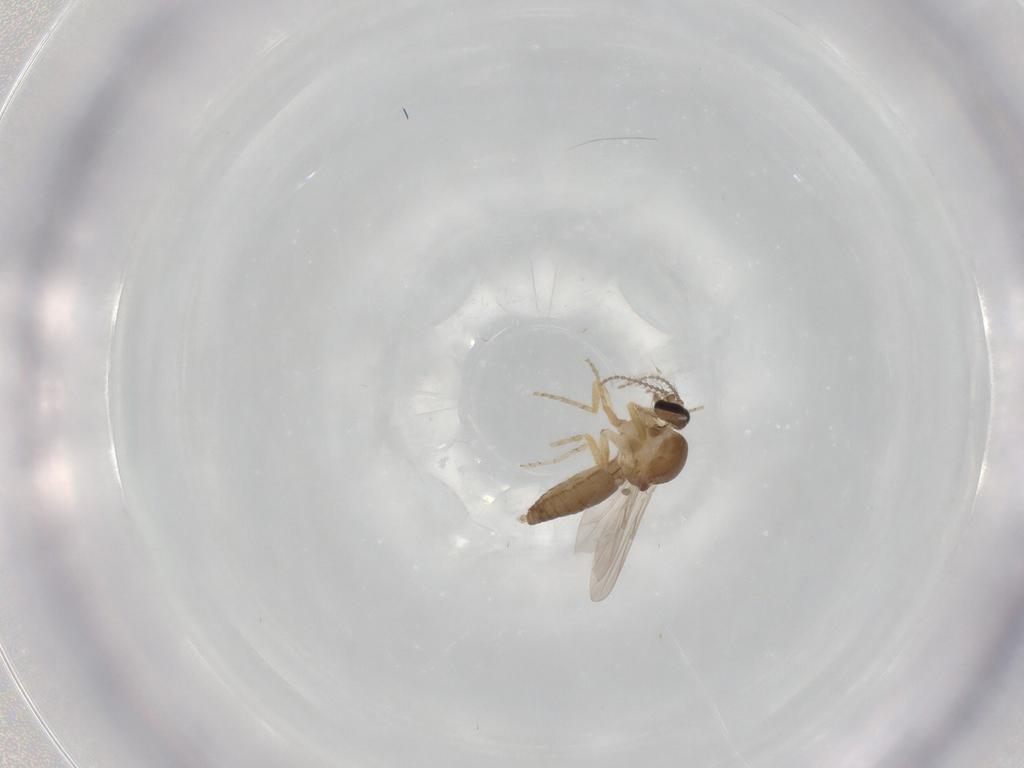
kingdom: Animalia
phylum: Arthropoda
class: Insecta
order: Diptera
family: Ceratopogonidae
